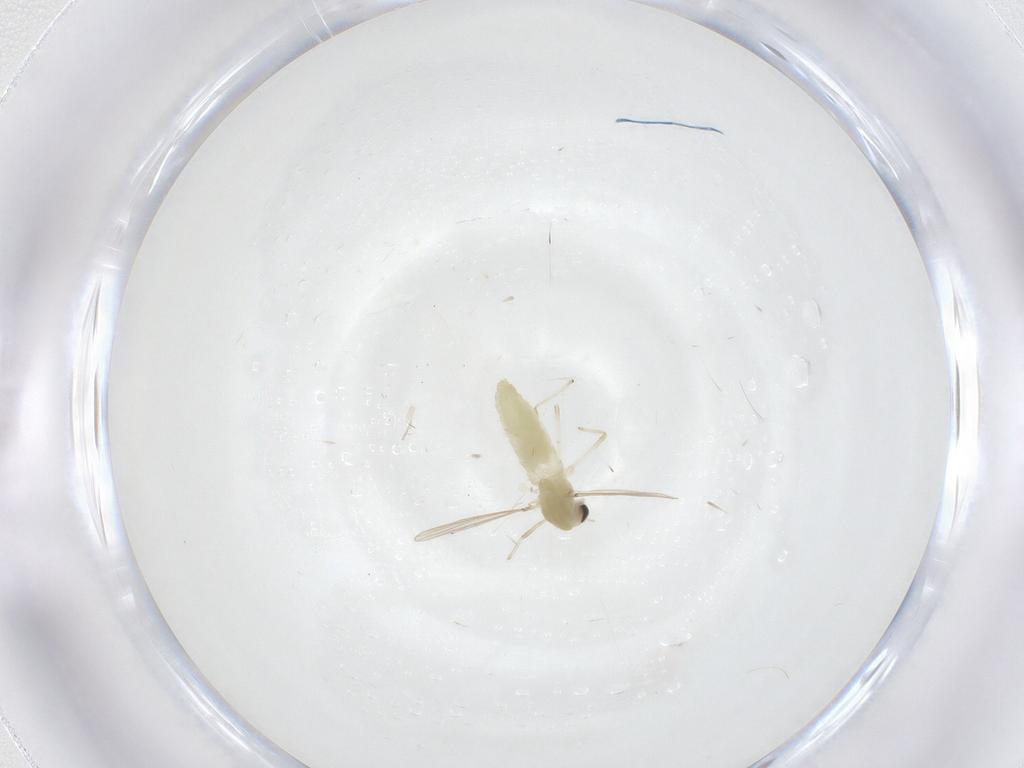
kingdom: Animalia
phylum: Arthropoda
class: Insecta
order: Diptera
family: Chironomidae
